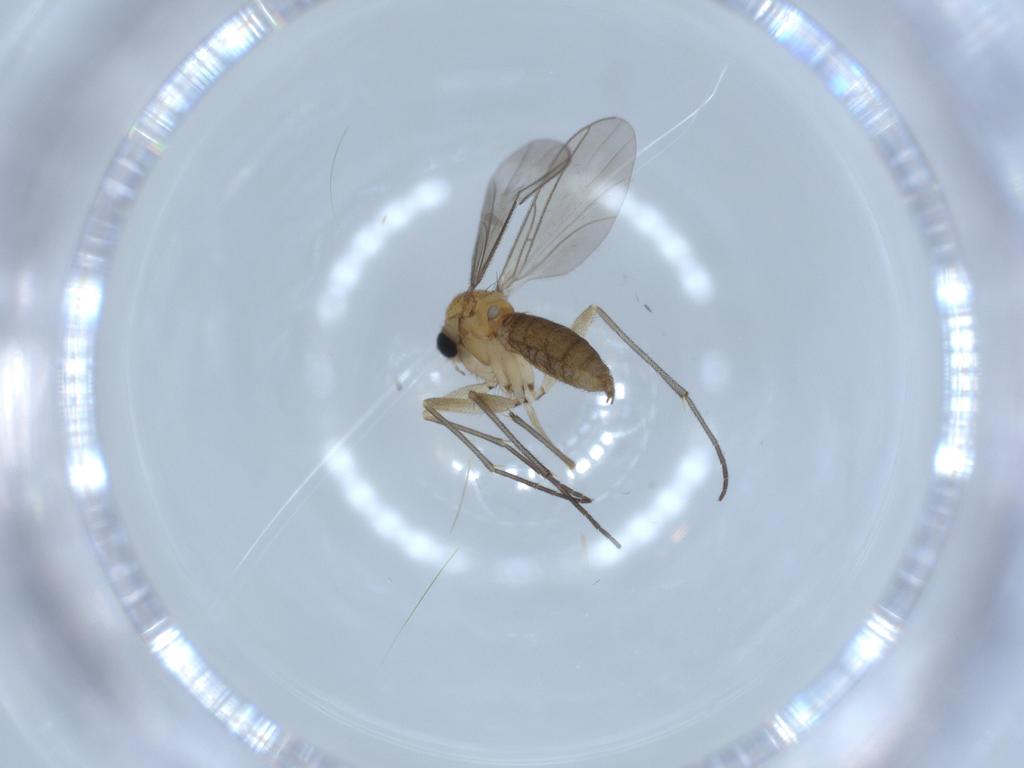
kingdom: Animalia
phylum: Arthropoda
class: Insecta
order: Diptera
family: Sciaridae
